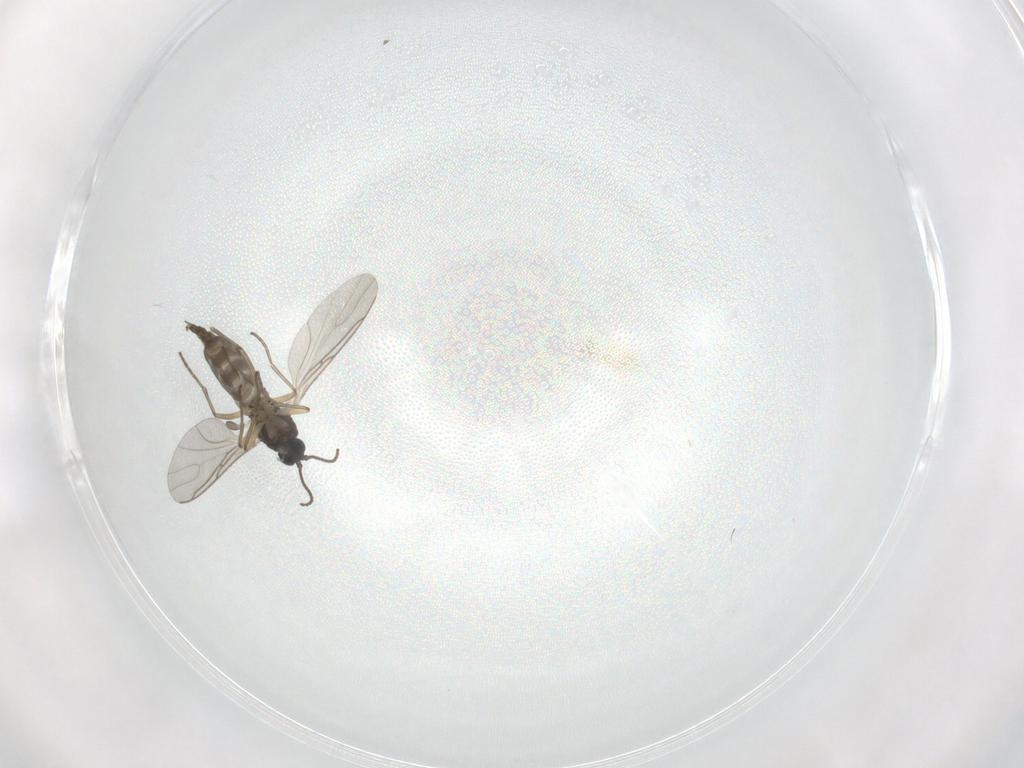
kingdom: Animalia
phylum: Arthropoda
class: Insecta
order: Diptera
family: Sciaridae
